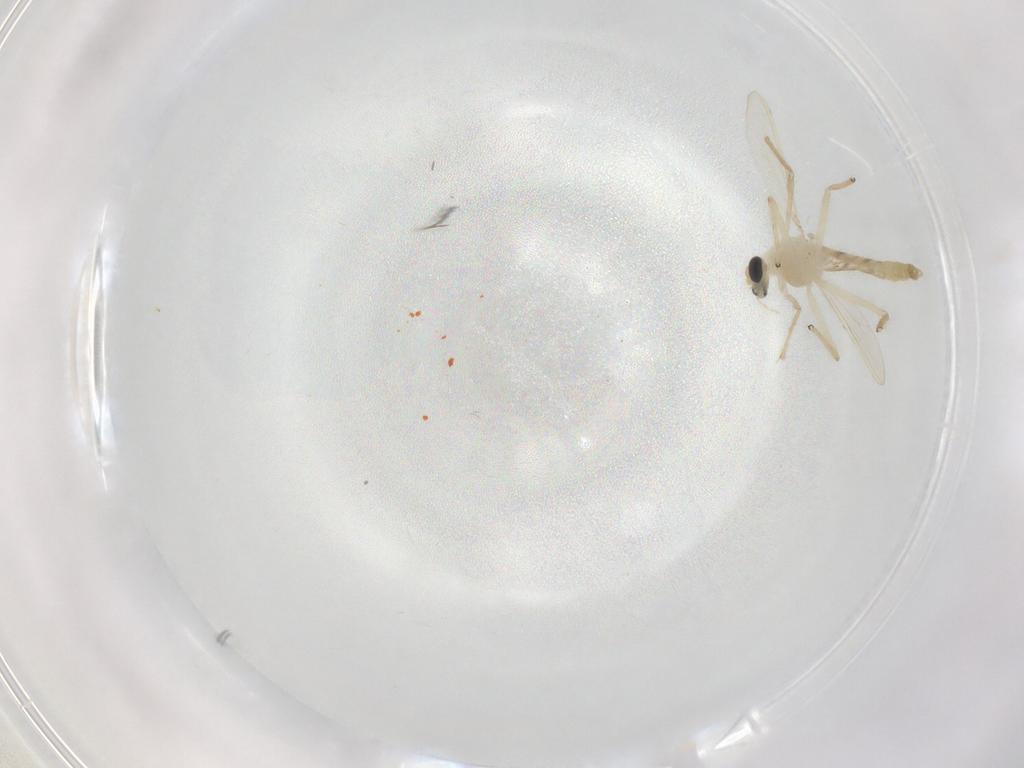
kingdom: Animalia
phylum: Arthropoda
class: Insecta
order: Diptera
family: Chironomidae
